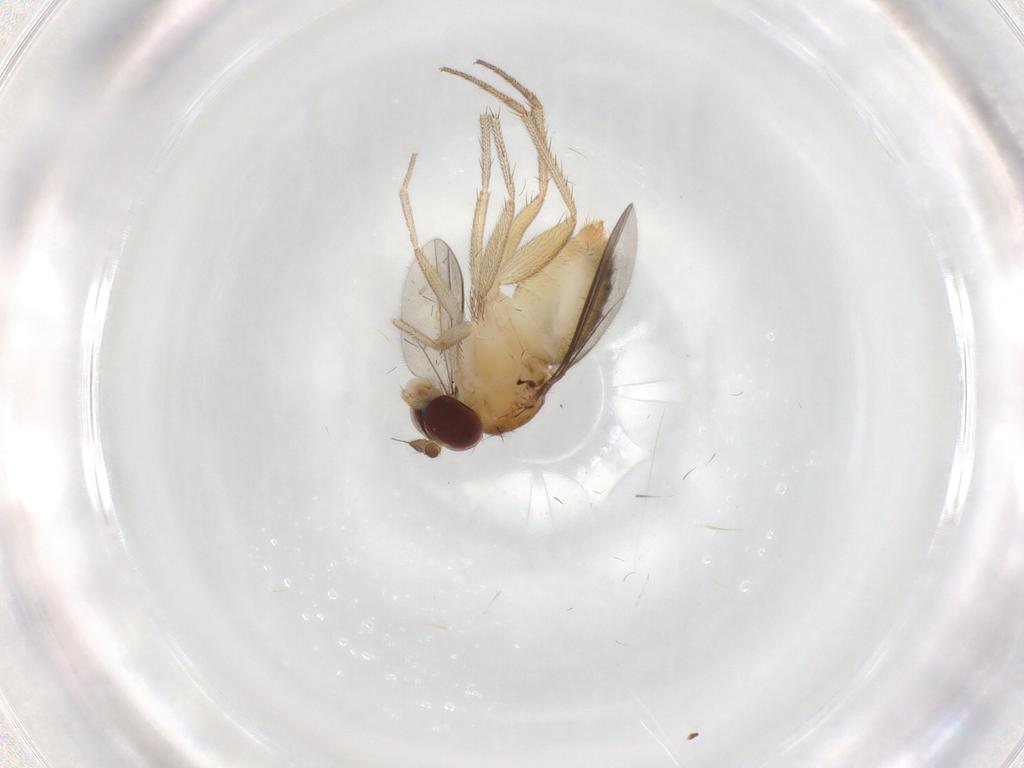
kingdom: Animalia
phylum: Arthropoda
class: Insecta
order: Diptera
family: Dolichopodidae
